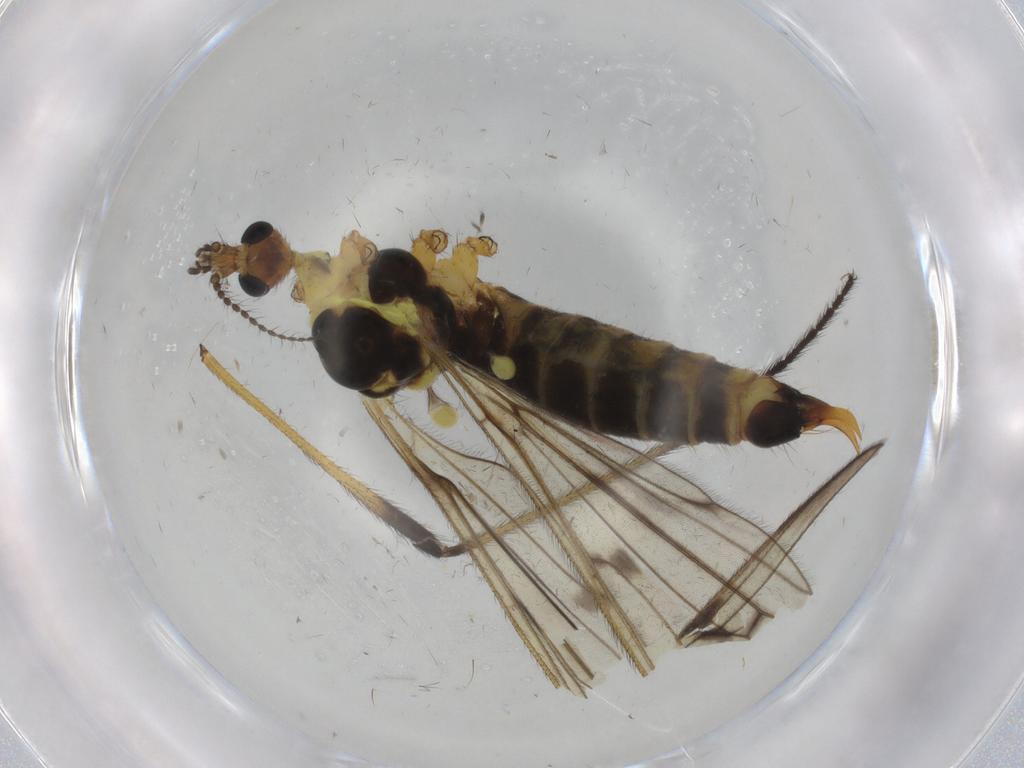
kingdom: Animalia
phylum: Arthropoda
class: Insecta
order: Diptera
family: Limoniidae
